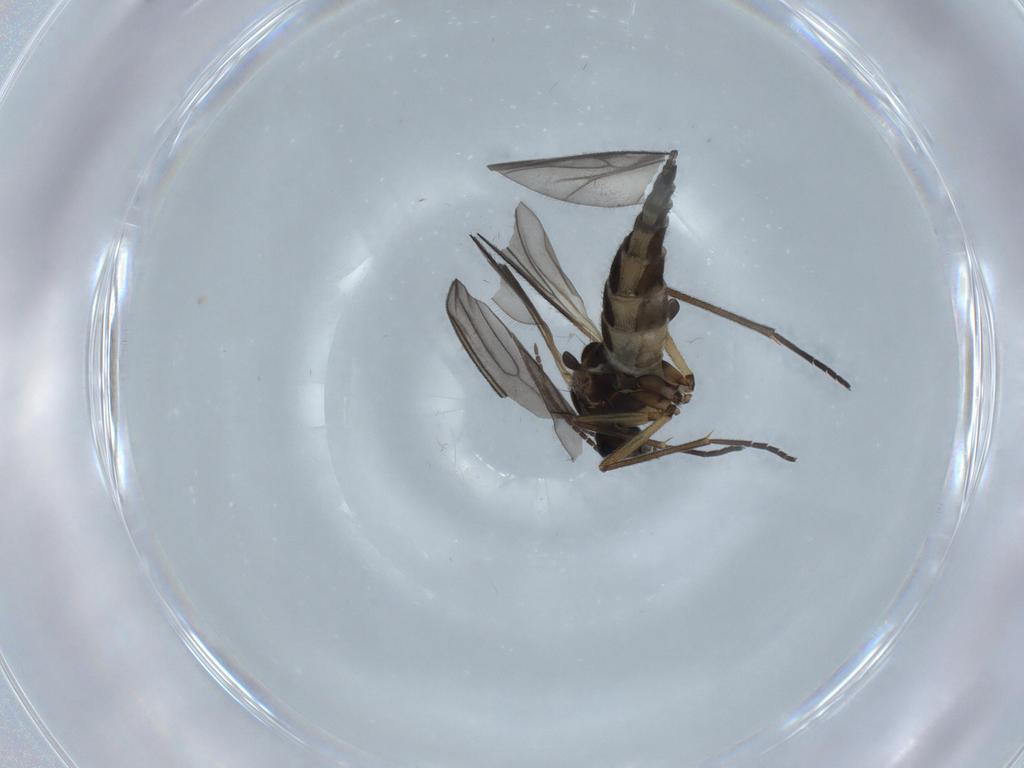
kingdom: Animalia
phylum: Arthropoda
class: Insecta
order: Diptera
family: Sciaridae
